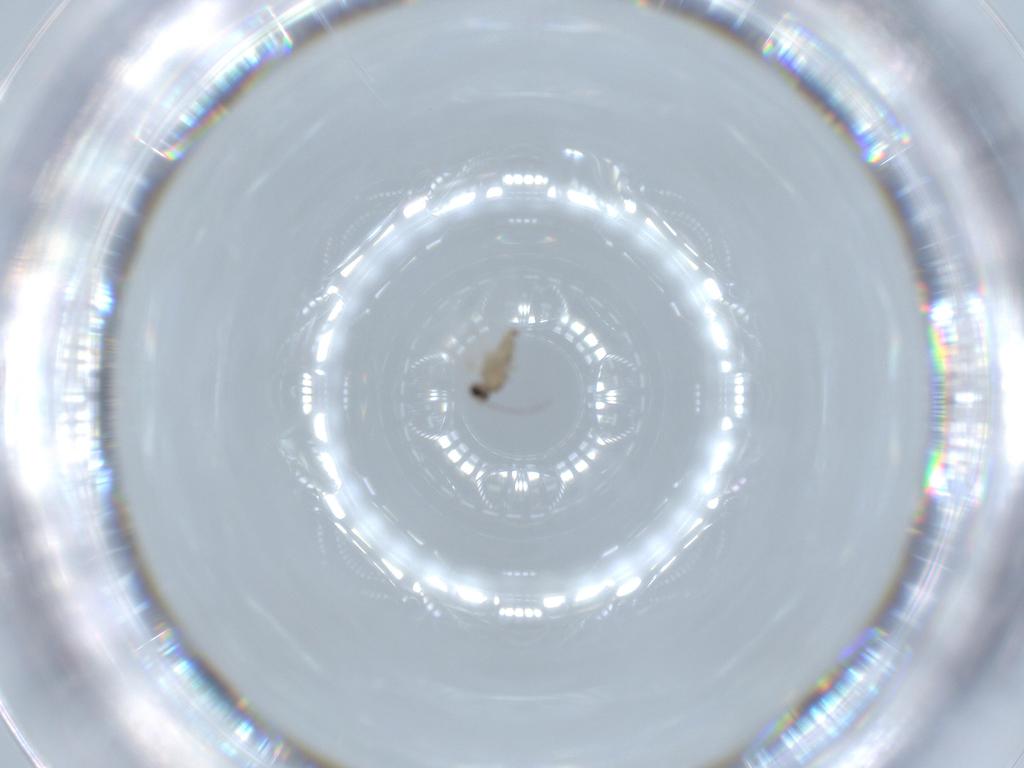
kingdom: Animalia
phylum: Arthropoda
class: Insecta
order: Diptera
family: Cecidomyiidae
